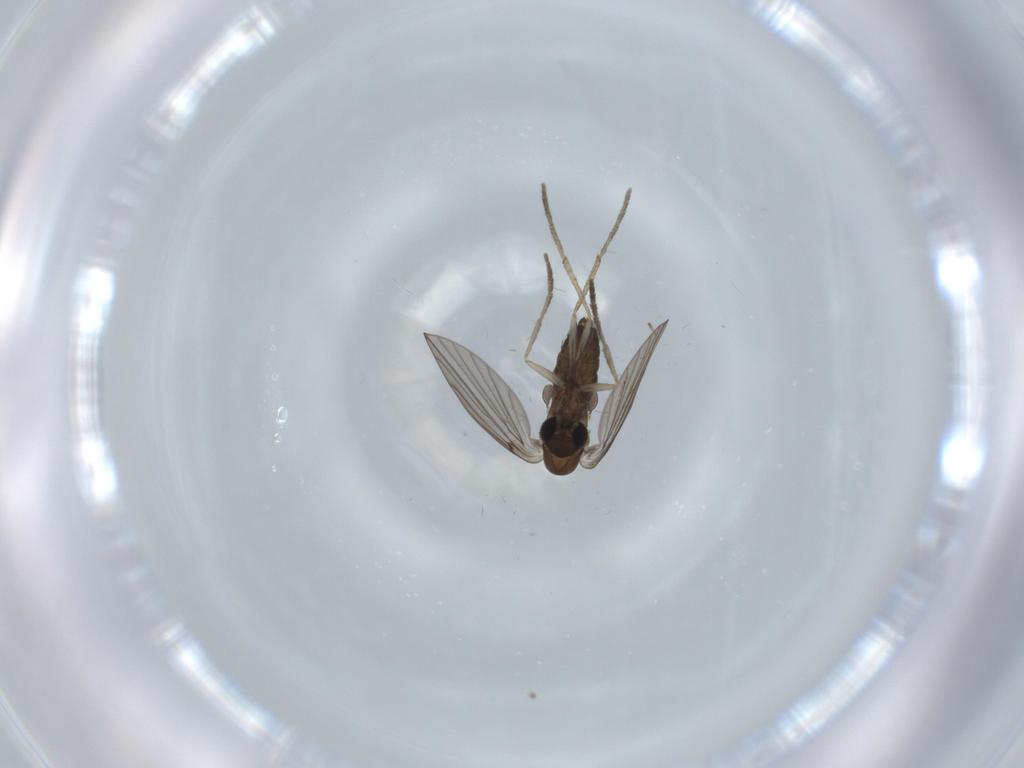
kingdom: Animalia
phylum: Arthropoda
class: Insecta
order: Diptera
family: Psychodidae
